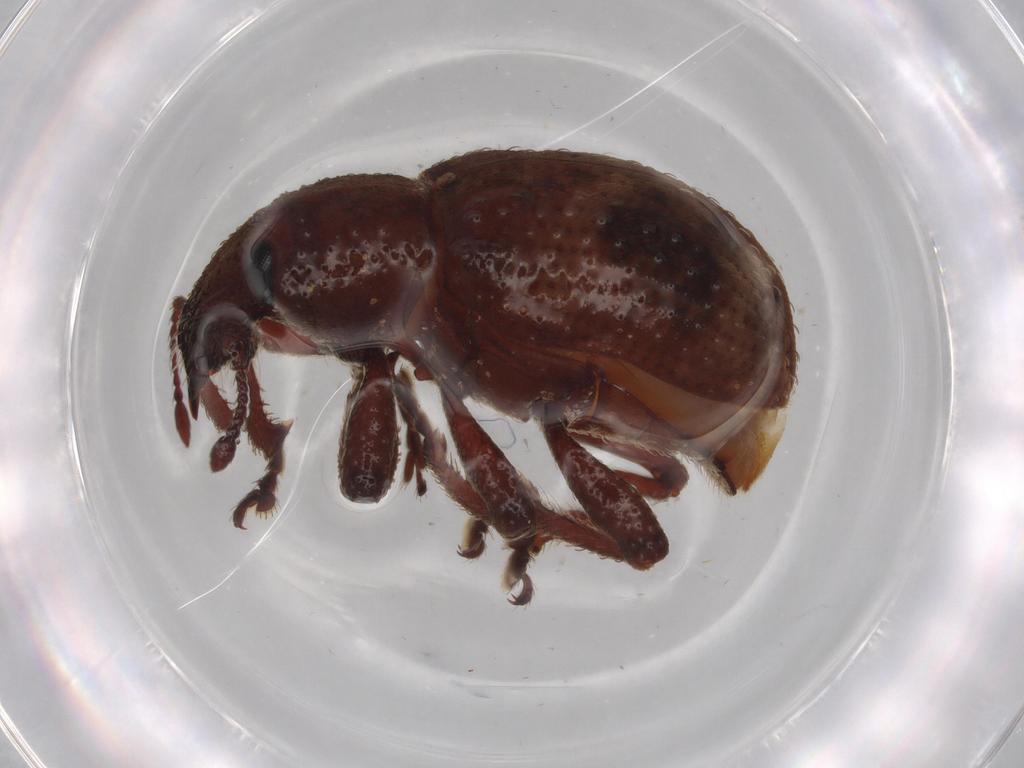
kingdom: Animalia
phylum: Arthropoda
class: Insecta
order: Coleoptera
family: Curculionidae
